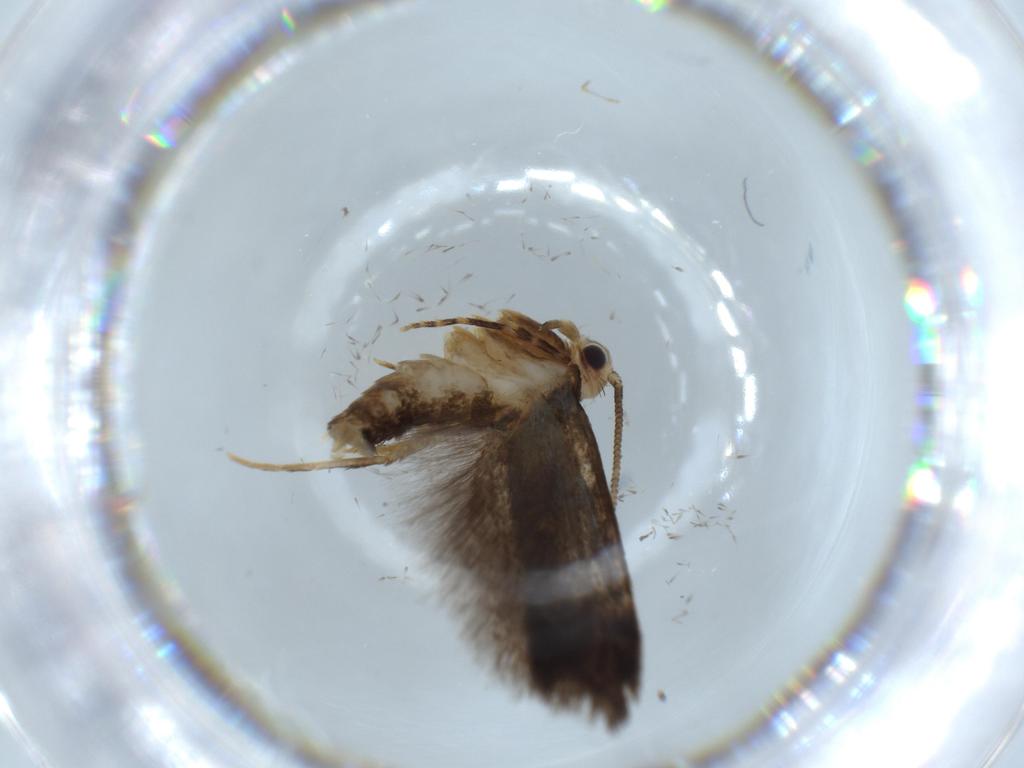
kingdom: Animalia
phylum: Arthropoda
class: Insecta
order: Lepidoptera
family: Tineidae
